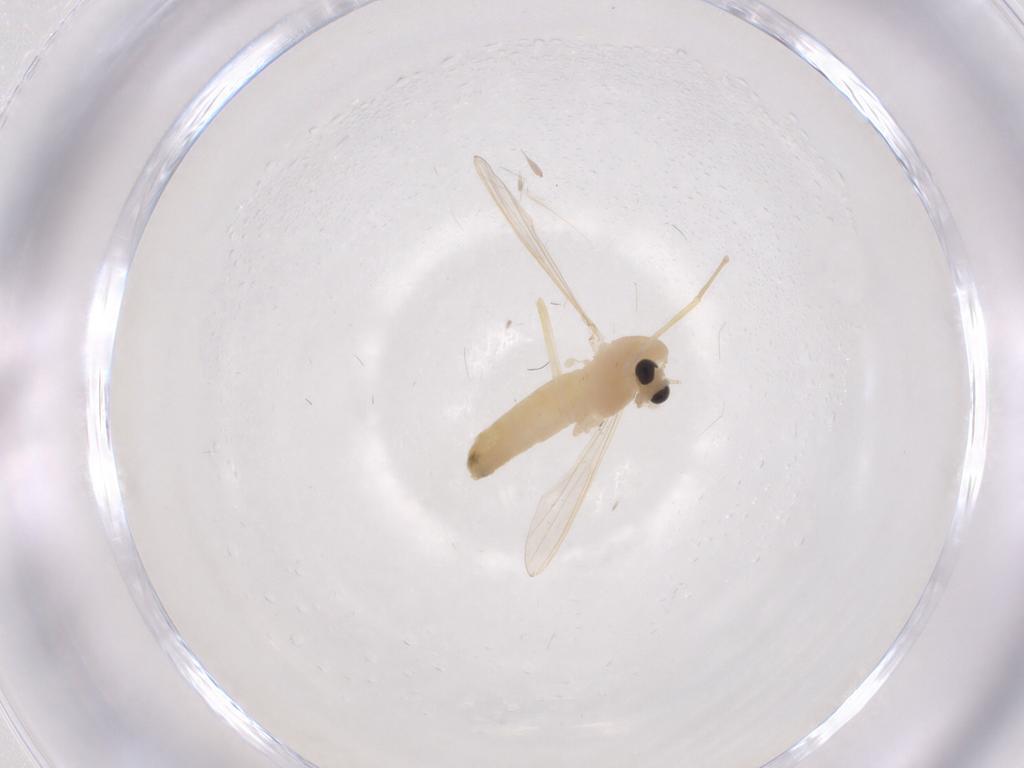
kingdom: Animalia
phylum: Arthropoda
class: Insecta
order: Diptera
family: Chironomidae
